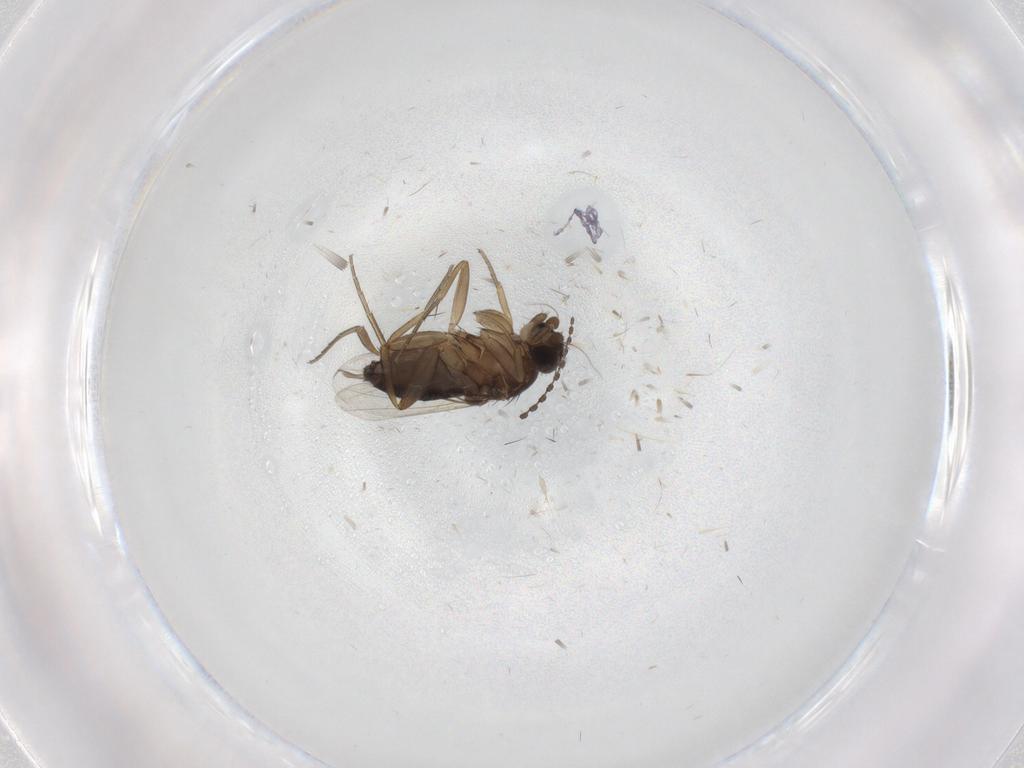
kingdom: Animalia
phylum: Arthropoda
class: Insecta
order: Diptera
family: Phoridae
